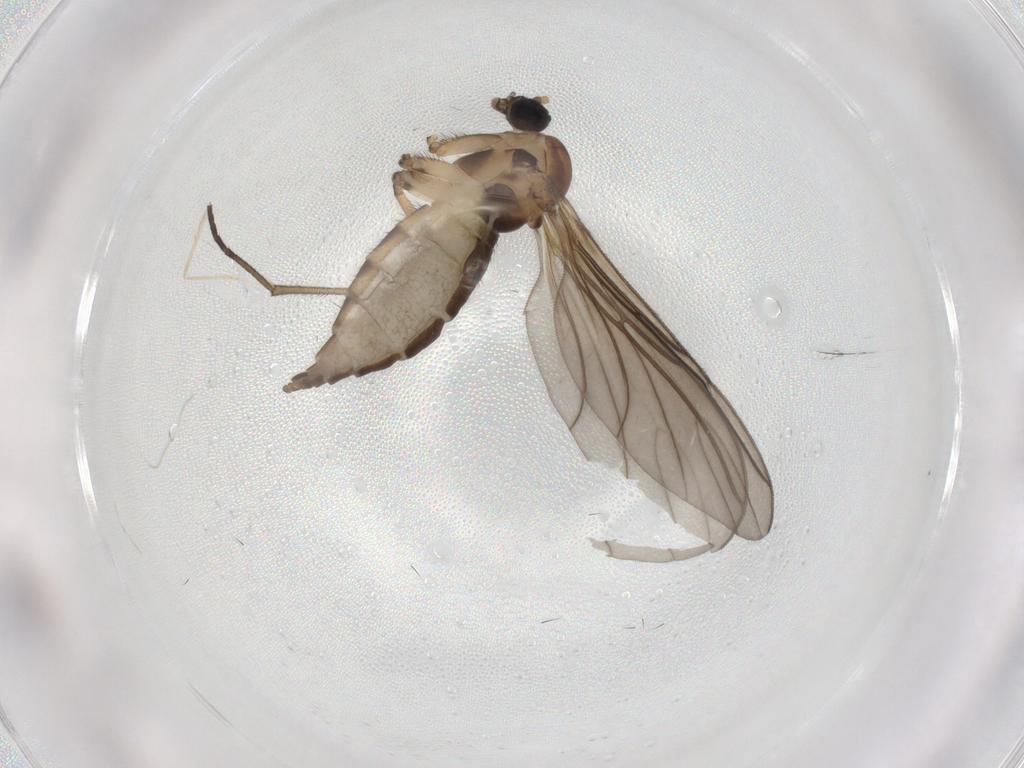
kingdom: Animalia
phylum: Arthropoda
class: Insecta
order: Diptera
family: Sciaridae
